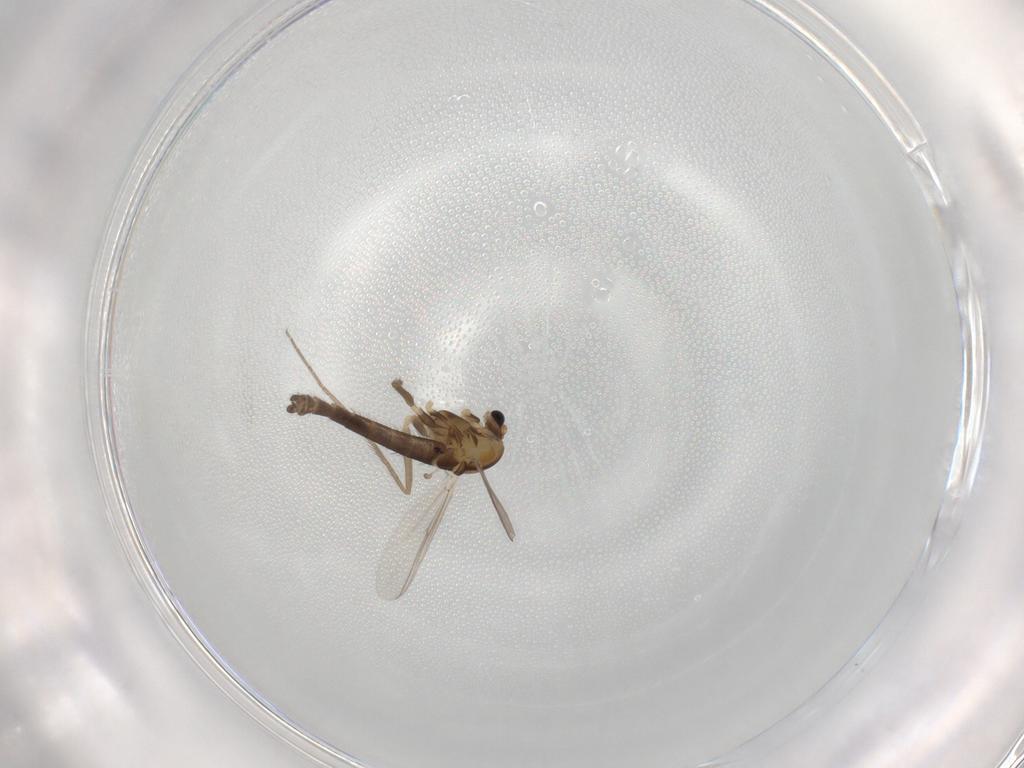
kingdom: Animalia
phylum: Arthropoda
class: Insecta
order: Diptera
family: Chironomidae
